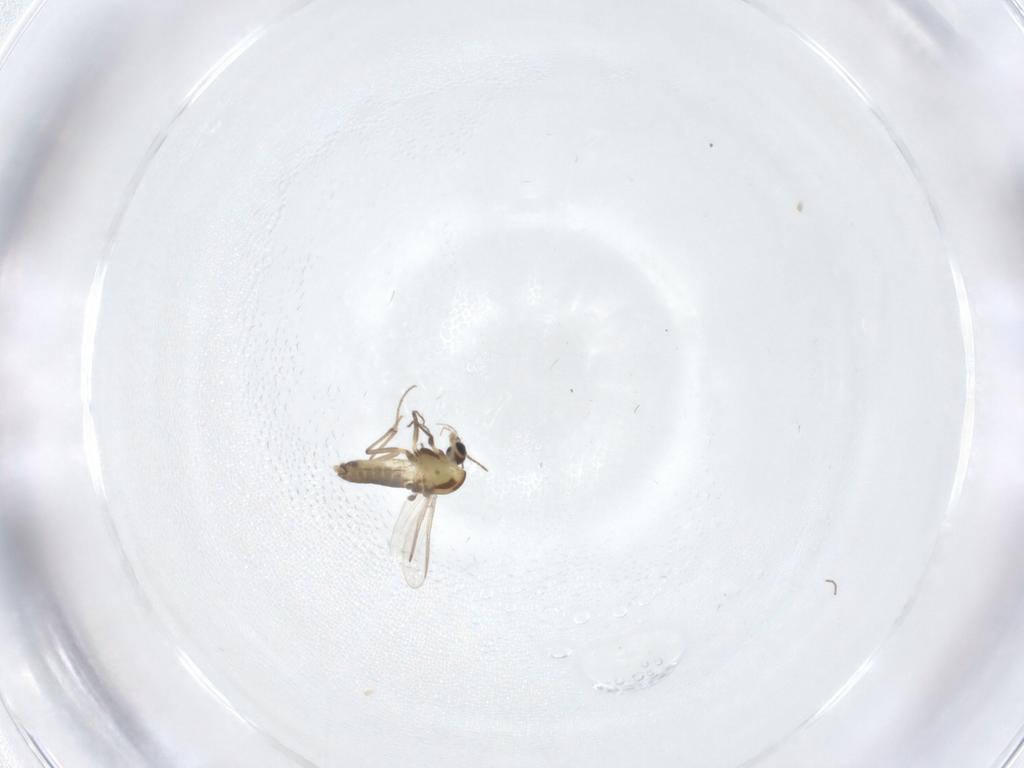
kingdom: Animalia
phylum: Arthropoda
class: Insecta
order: Diptera
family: Chironomidae
